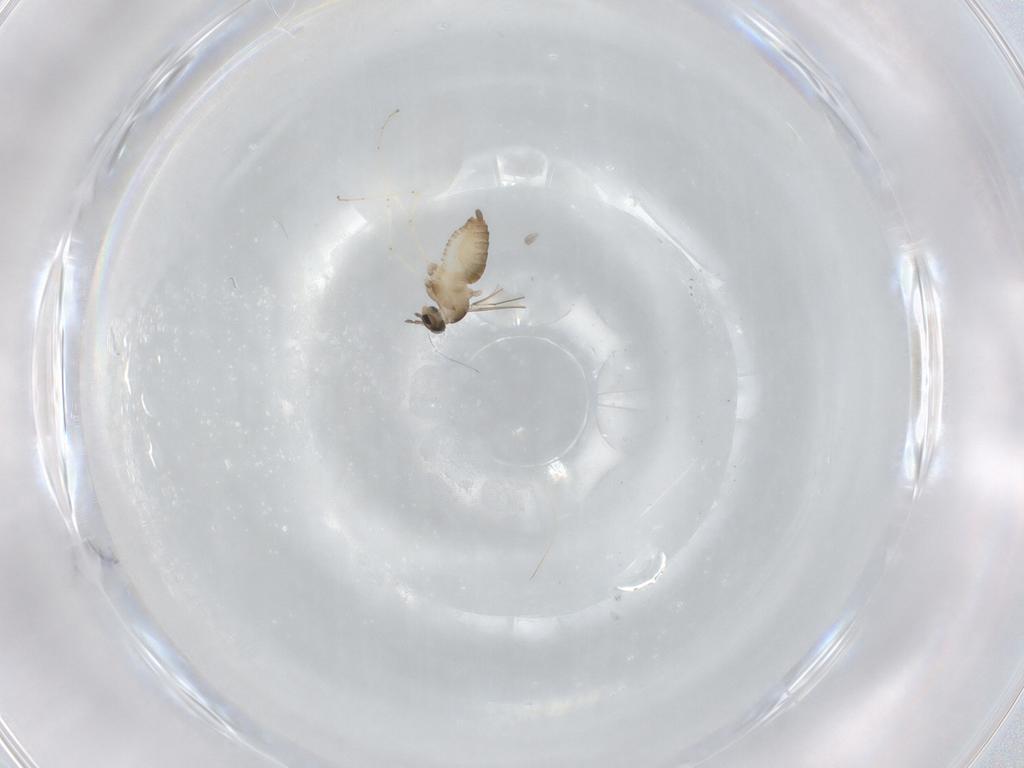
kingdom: Animalia
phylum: Arthropoda
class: Insecta
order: Diptera
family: Cecidomyiidae
